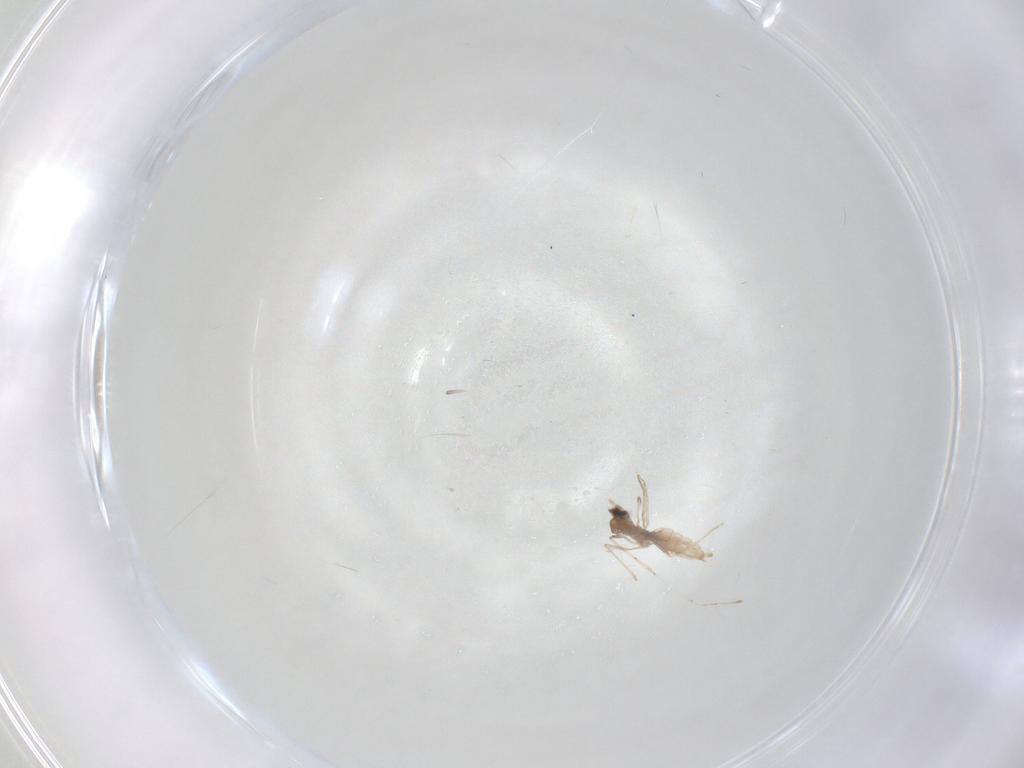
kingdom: Animalia
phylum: Arthropoda
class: Insecta
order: Diptera
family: Cecidomyiidae
